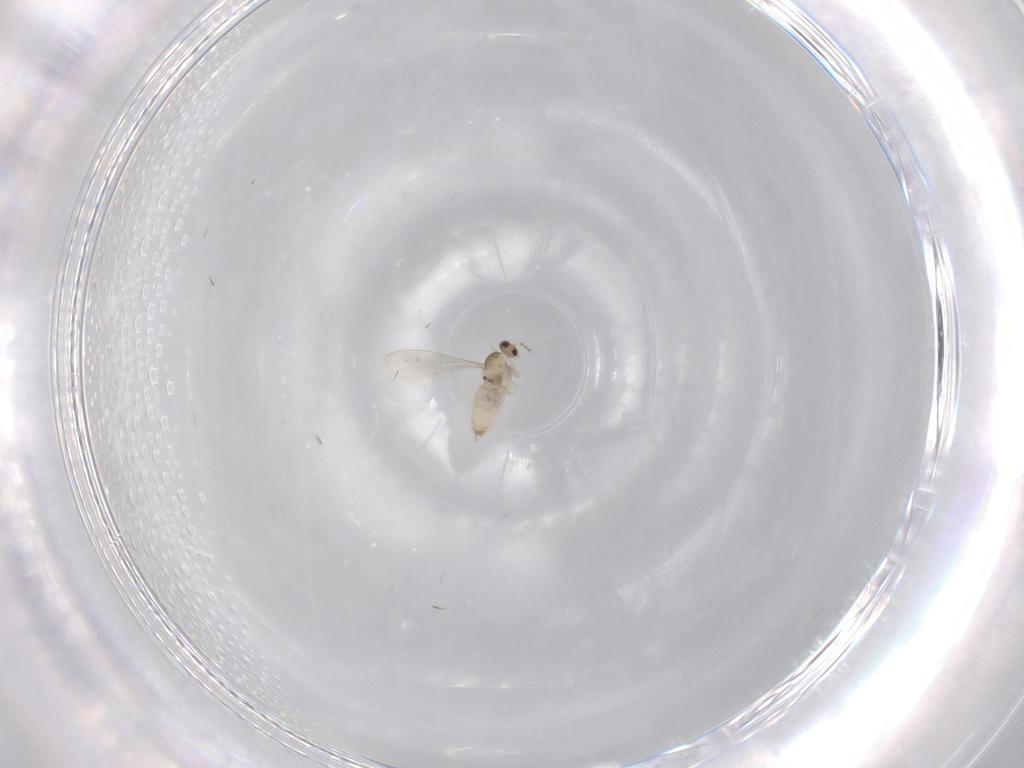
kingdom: Animalia
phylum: Arthropoda
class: Insecta
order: Diptera
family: Cecidomyiidae
